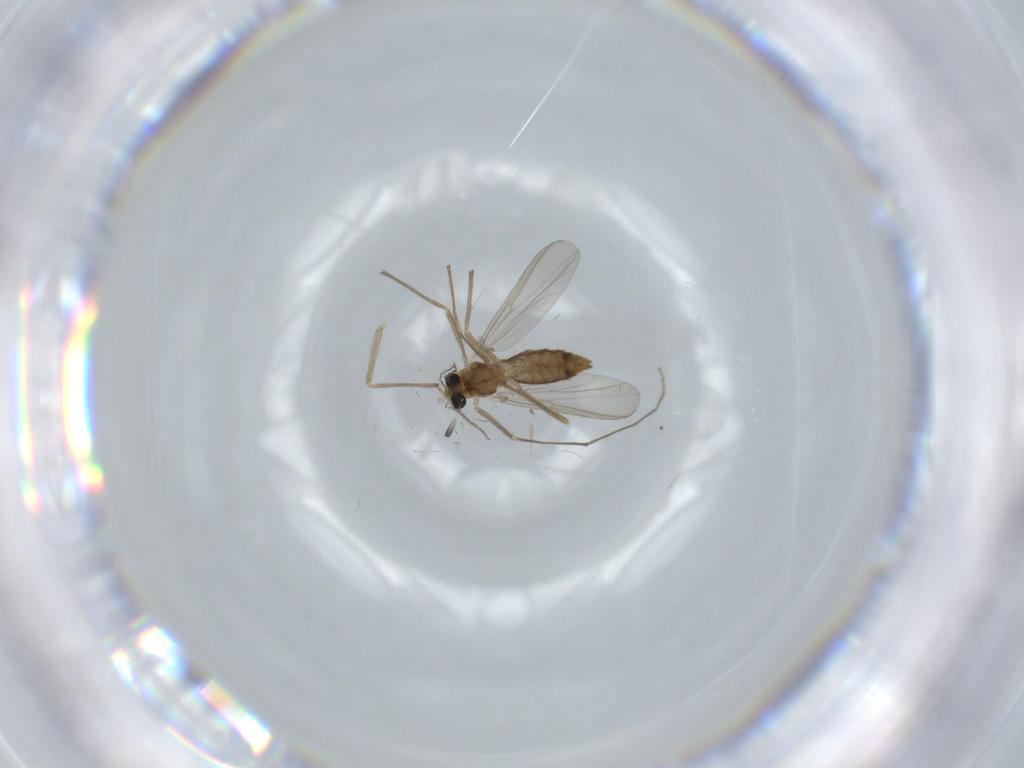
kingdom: Animalia
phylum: Arthropoda
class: Insecta
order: Diptera
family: Chironomidae
